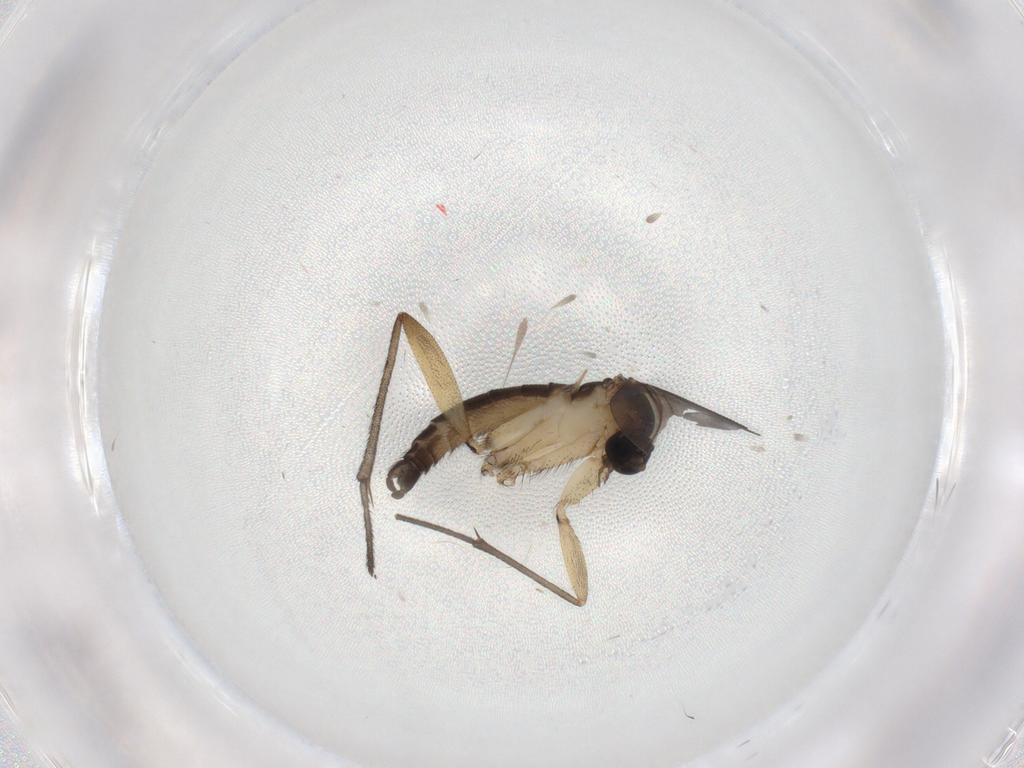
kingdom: Animalia
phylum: Arthropoda
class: Insecta
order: Diptera
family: Sciaridae
